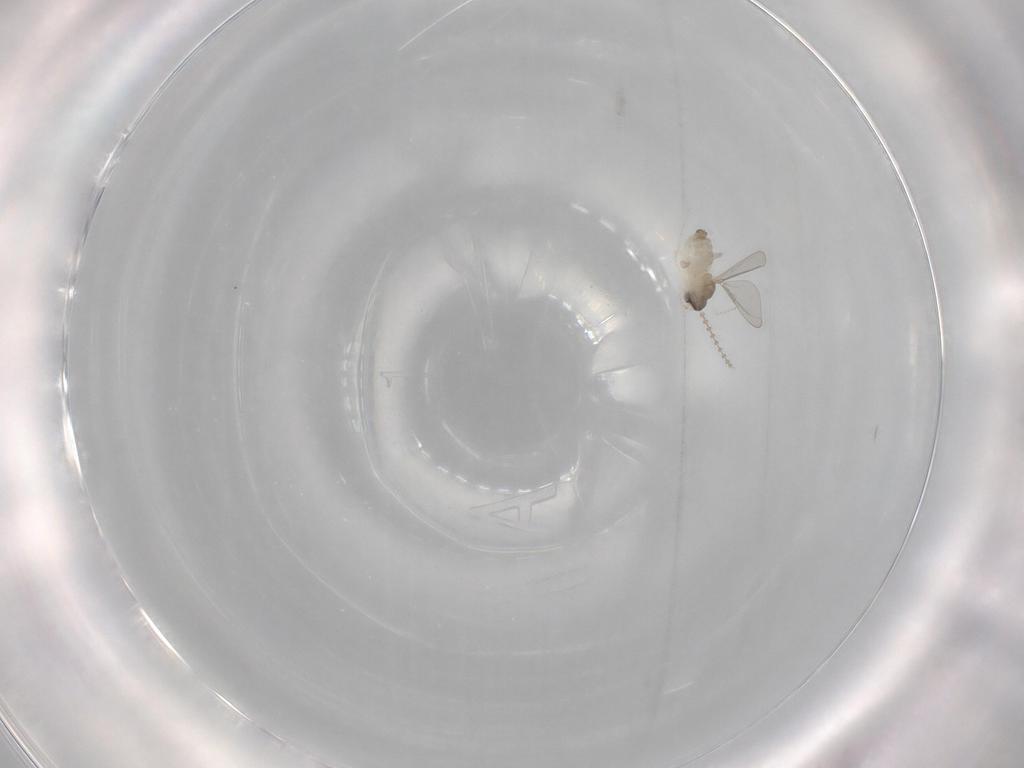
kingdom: Animalia
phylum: Arthropoda
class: Insecta
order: Diptera
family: Cecidomyiidae
